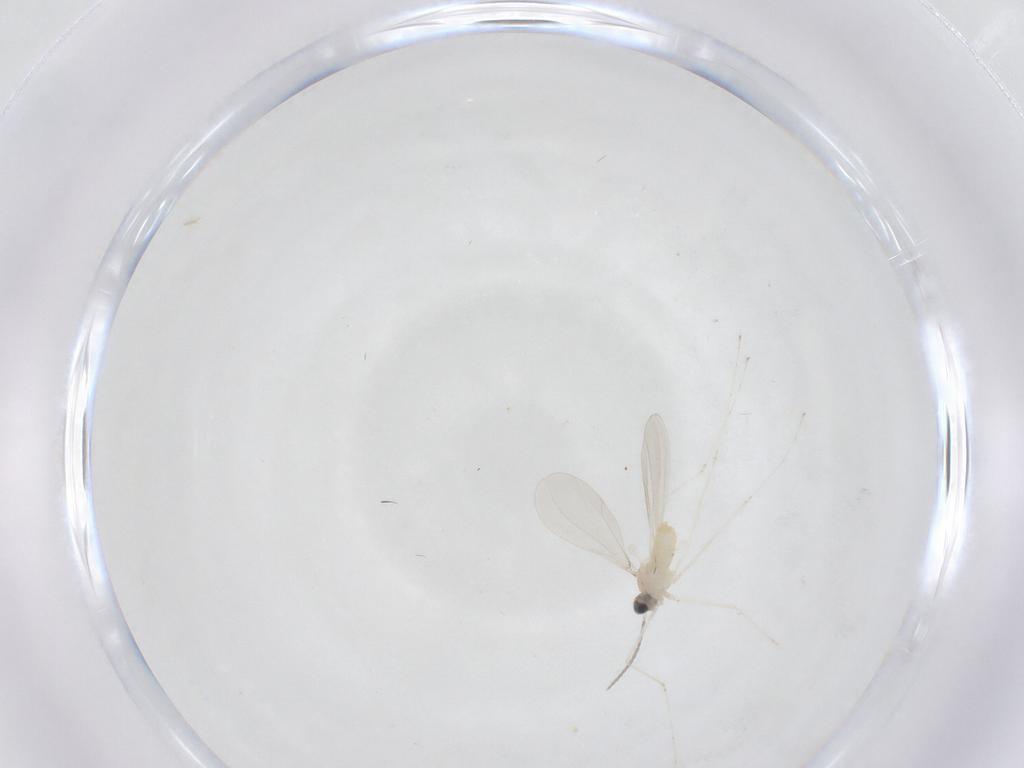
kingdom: Animalia
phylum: Arthropoda
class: Insecta
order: Diptera
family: Cecidomyiidae
